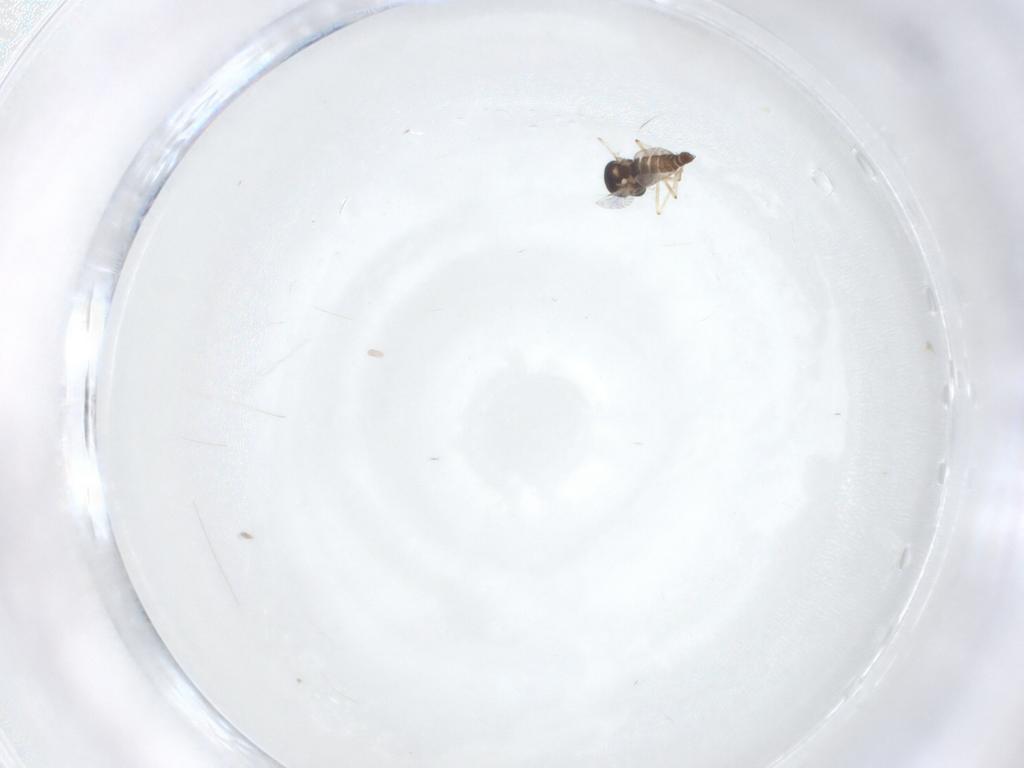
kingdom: Animalia
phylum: Arthropoda
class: Insecta
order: Diptera
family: Chironomidae
